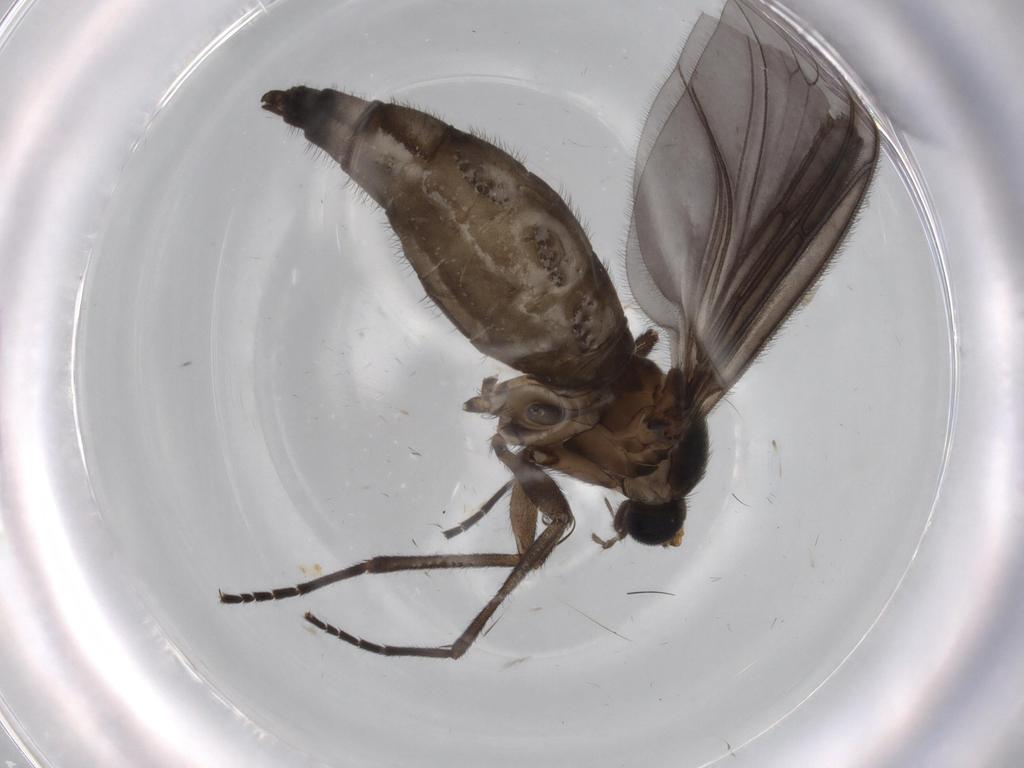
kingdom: Animalia
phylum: Arthropoda
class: Insecta
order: Diptera
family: Sciaridae
